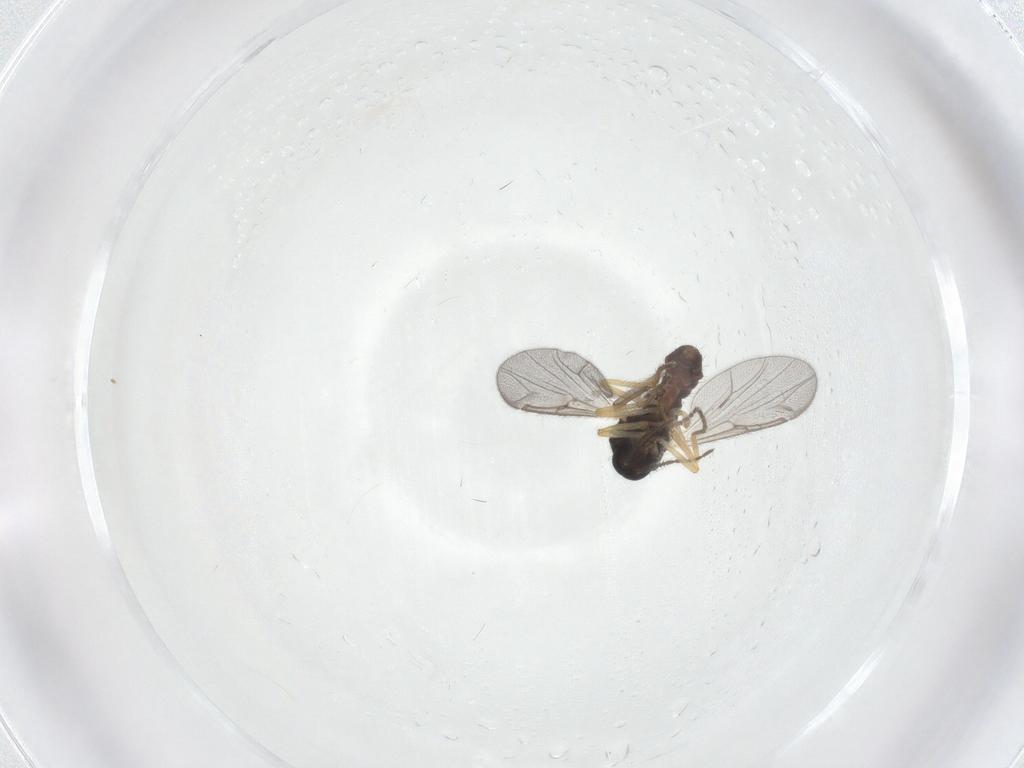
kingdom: Animalia
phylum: Arthropoda
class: Insecta
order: Diptera
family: Ceratopogonidae
